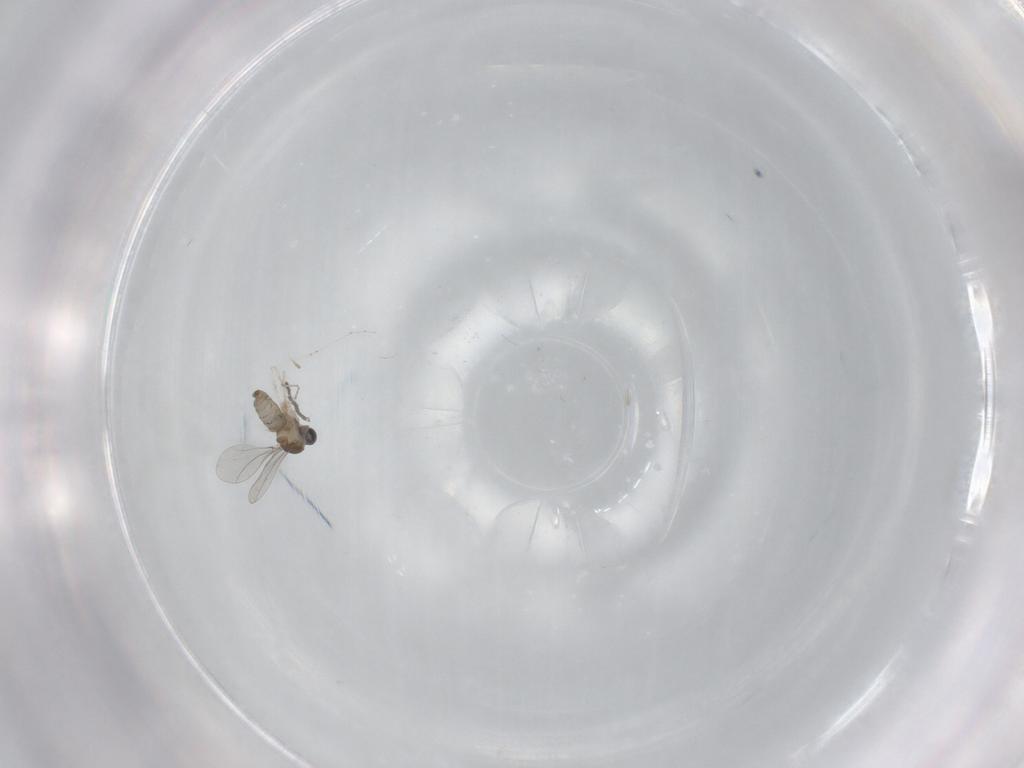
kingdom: Animalia
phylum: Arthropoda
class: Insecta
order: Diptera
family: Cecidomyiidae
